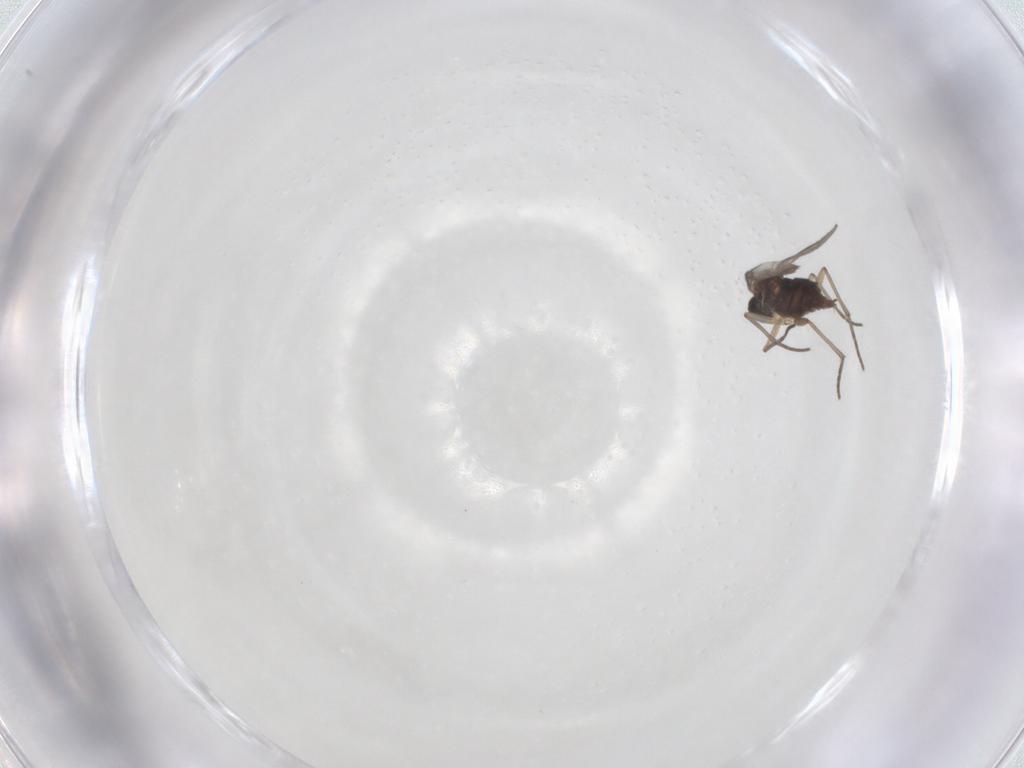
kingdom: Animalia
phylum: Arthropoda
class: Insecta
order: Diptera
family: Sciaridae
